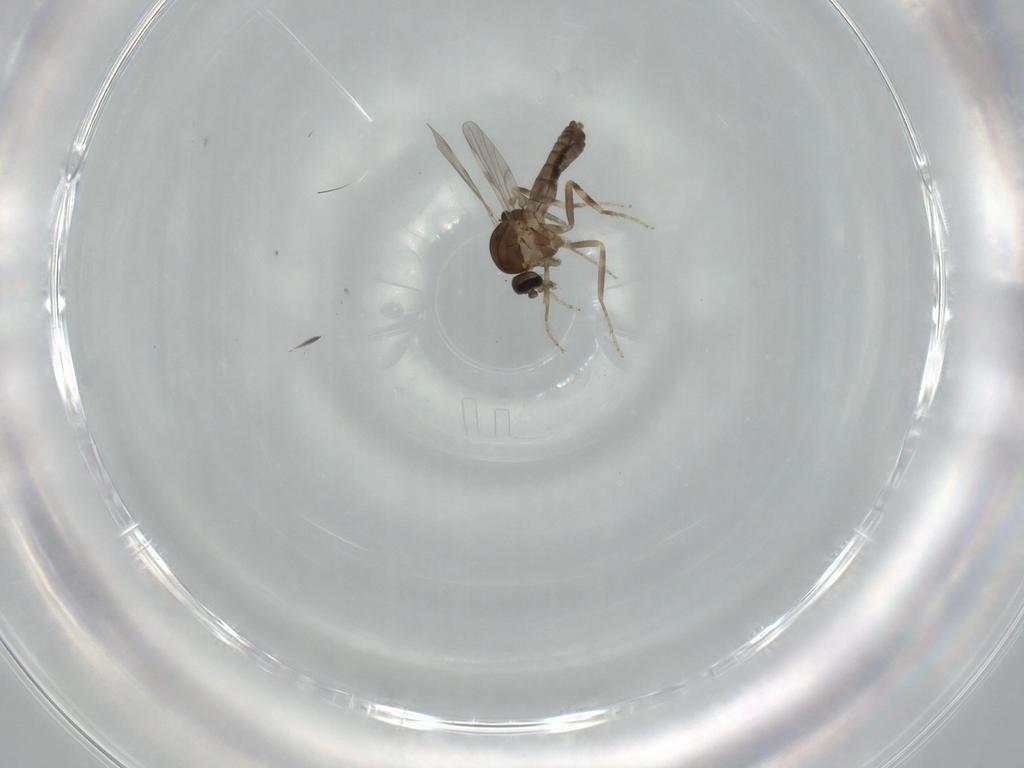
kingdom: Animalia
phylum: Arthropoda
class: Insecta
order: Diptera
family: Ceratopogonidae
